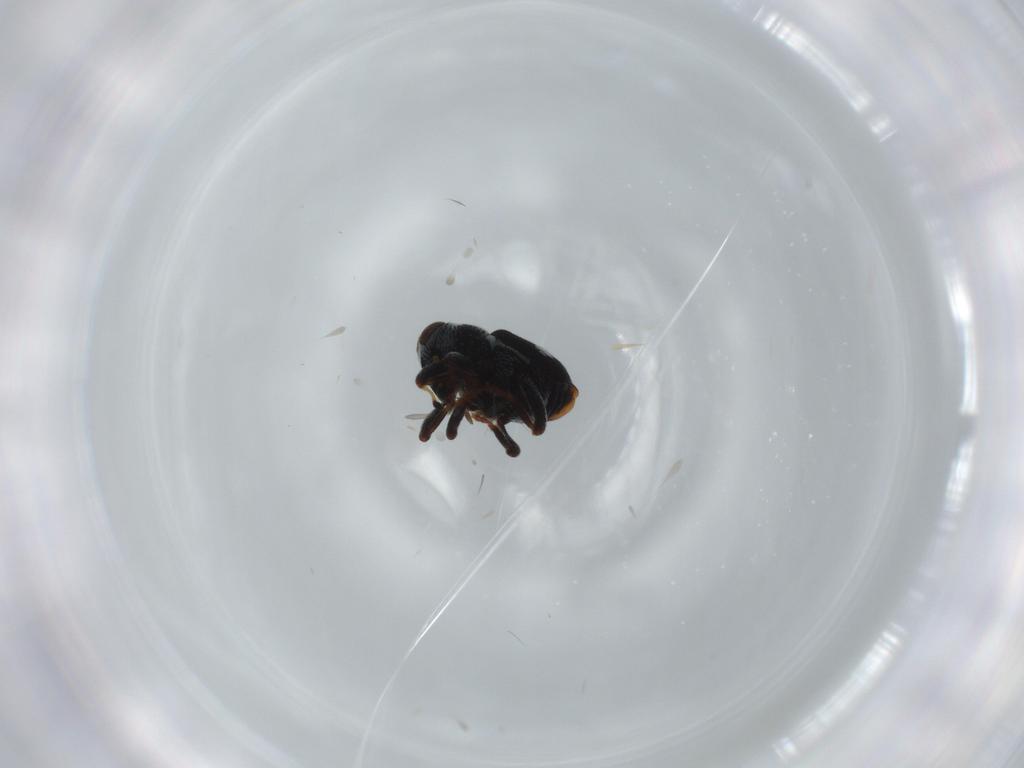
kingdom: Animalia
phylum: Arthropoda
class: Insecta
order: Coleoptera
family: Curculionidae
